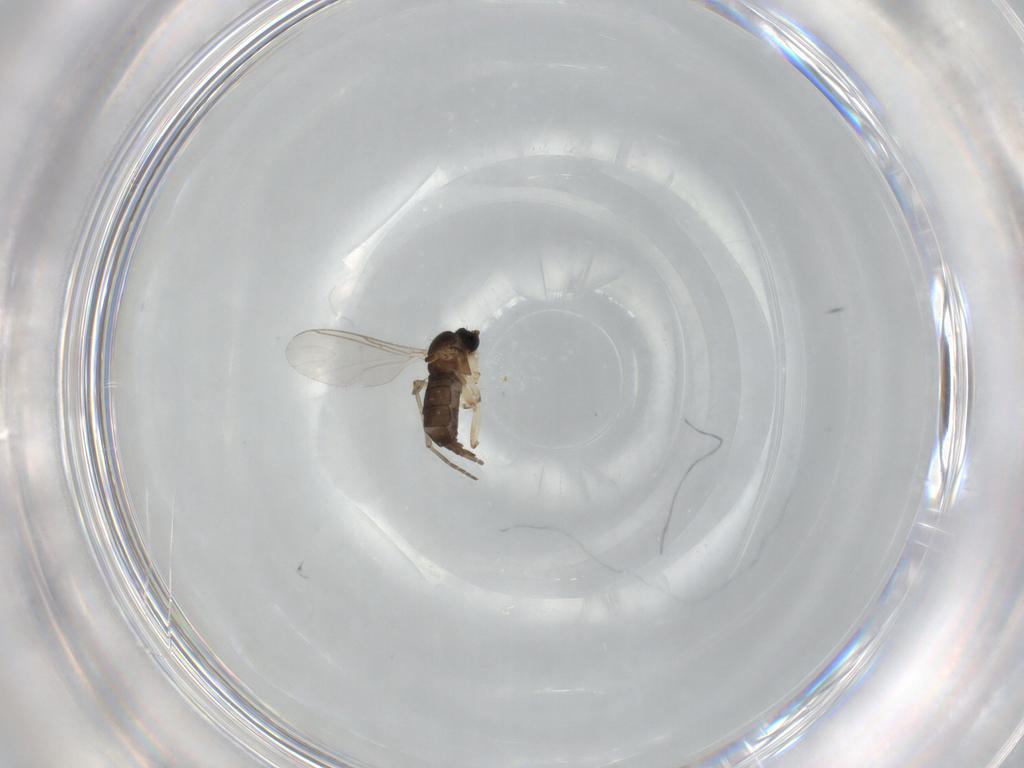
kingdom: Animalia
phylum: Arthropoda
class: Insecta
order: Diptera
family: Sciaridae
